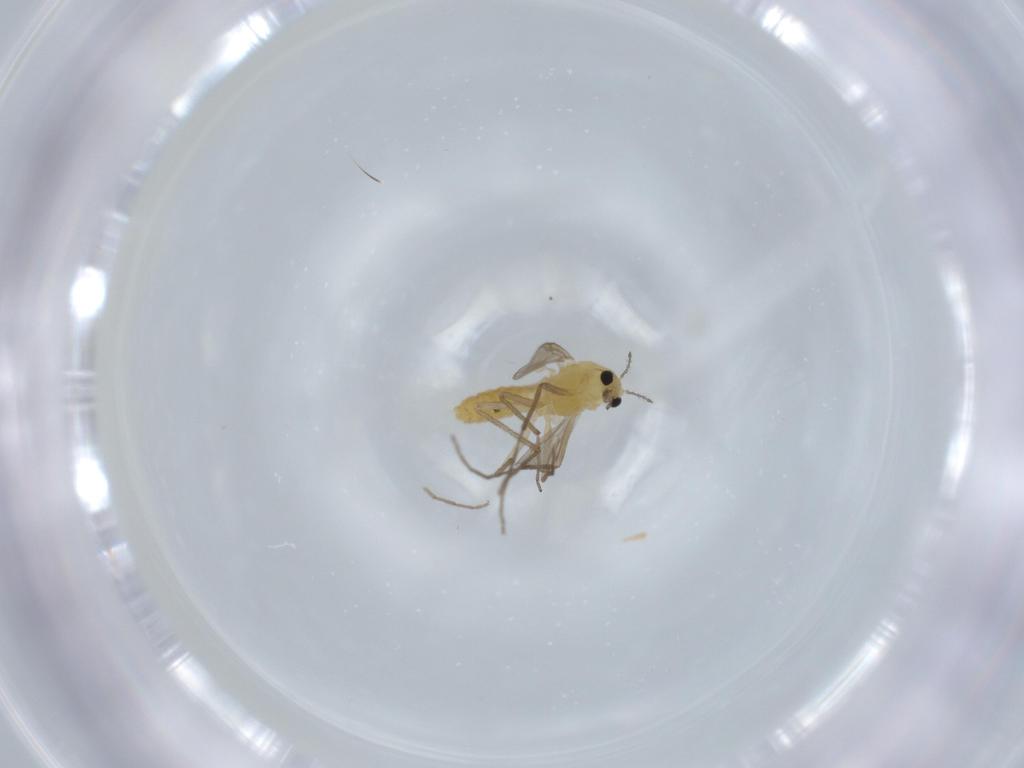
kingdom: Animalia
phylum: Arthropoda
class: Insecta
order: Diptera
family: Chironomidae
